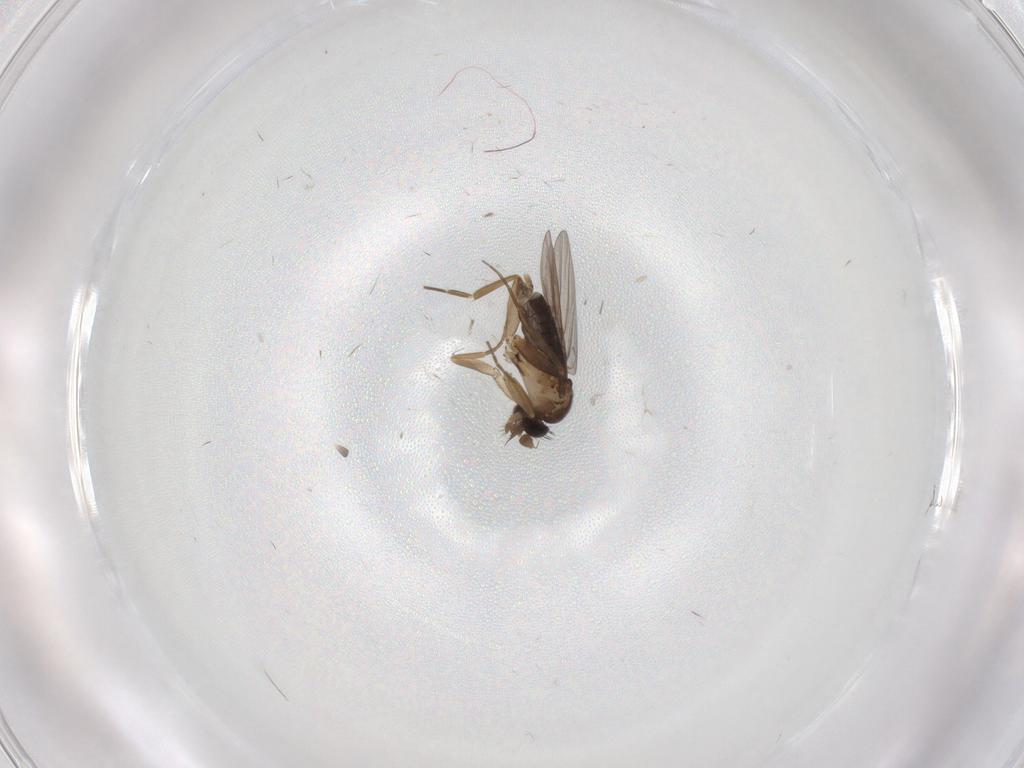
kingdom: Animalia
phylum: Arthropoda
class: Insecta
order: Diptera
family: Phoridae
